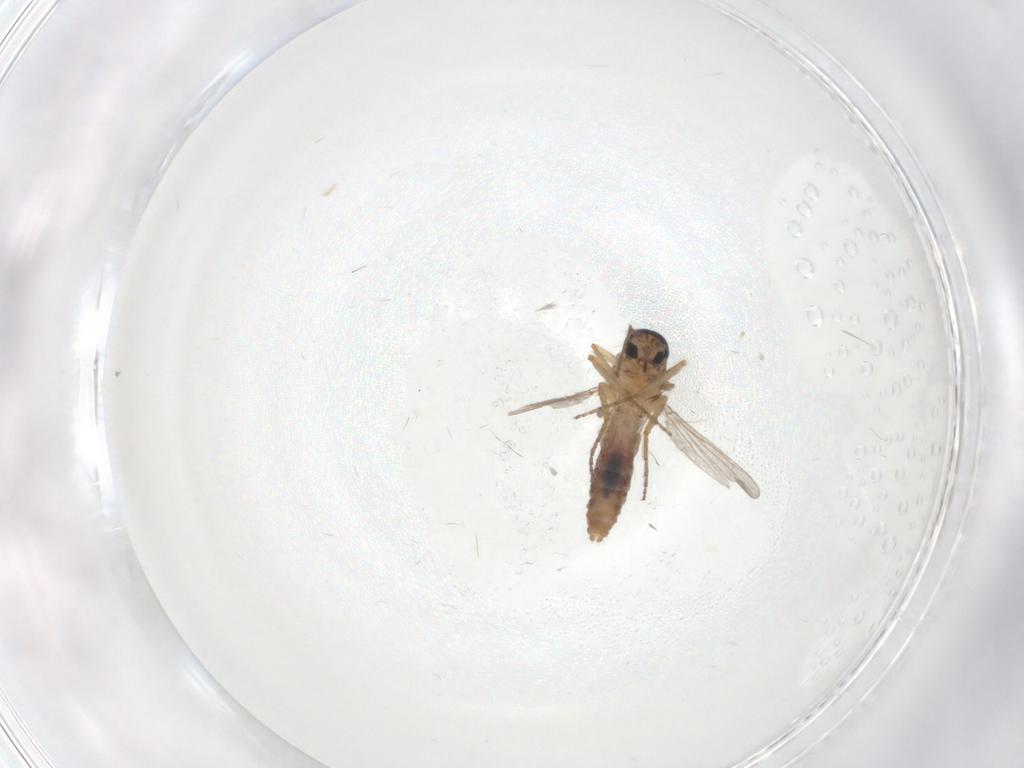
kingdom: Animalia
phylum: Arthropoda
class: Insecta
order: Diptera
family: Ceratopogonidae
